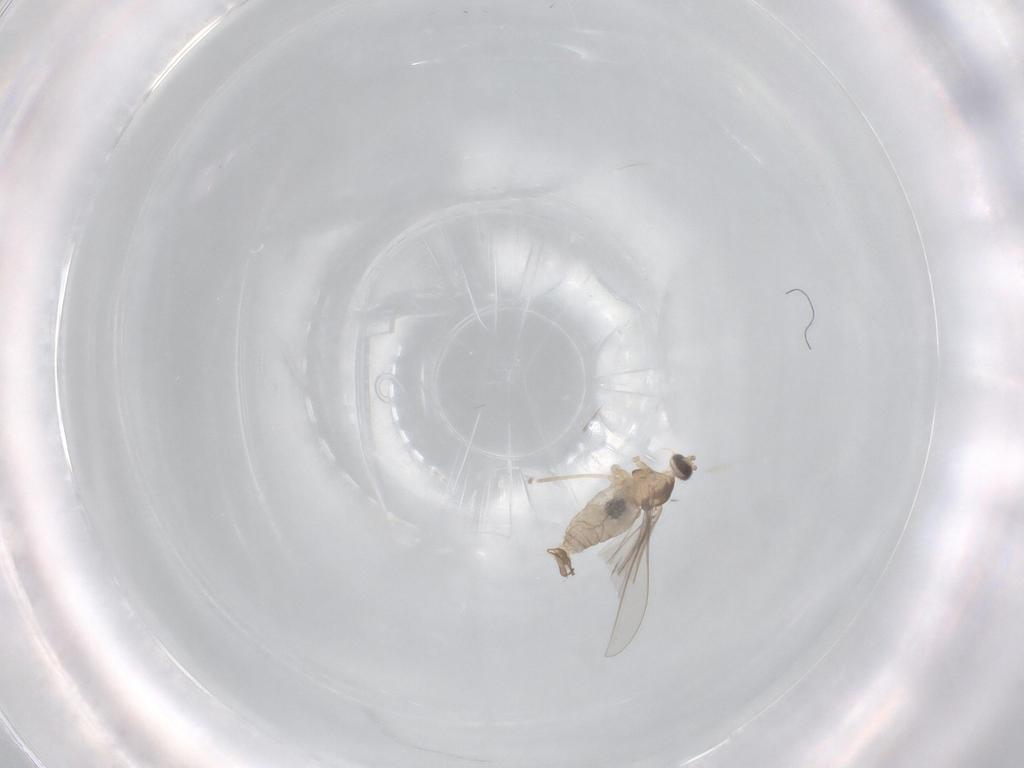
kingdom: Animalia
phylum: Arthropoda
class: Insecta
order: Diptera
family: Cecidomyiidae
